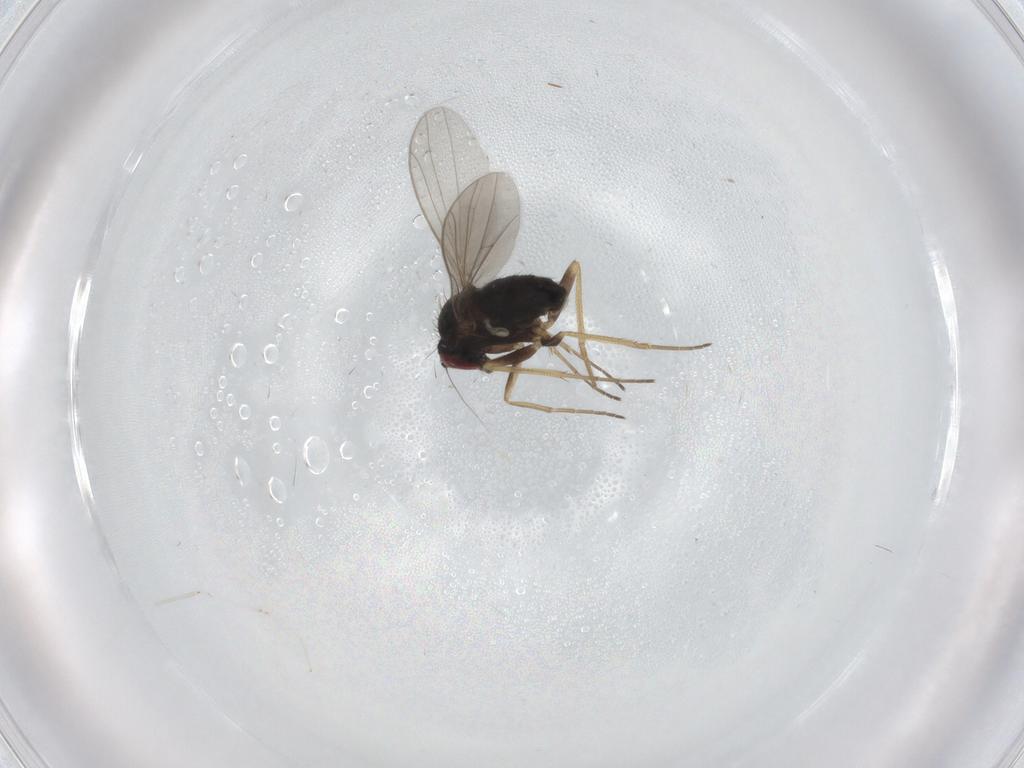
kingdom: Animalia
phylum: Arthropoda
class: Insecta
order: Diptera
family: Dolichopodidae
